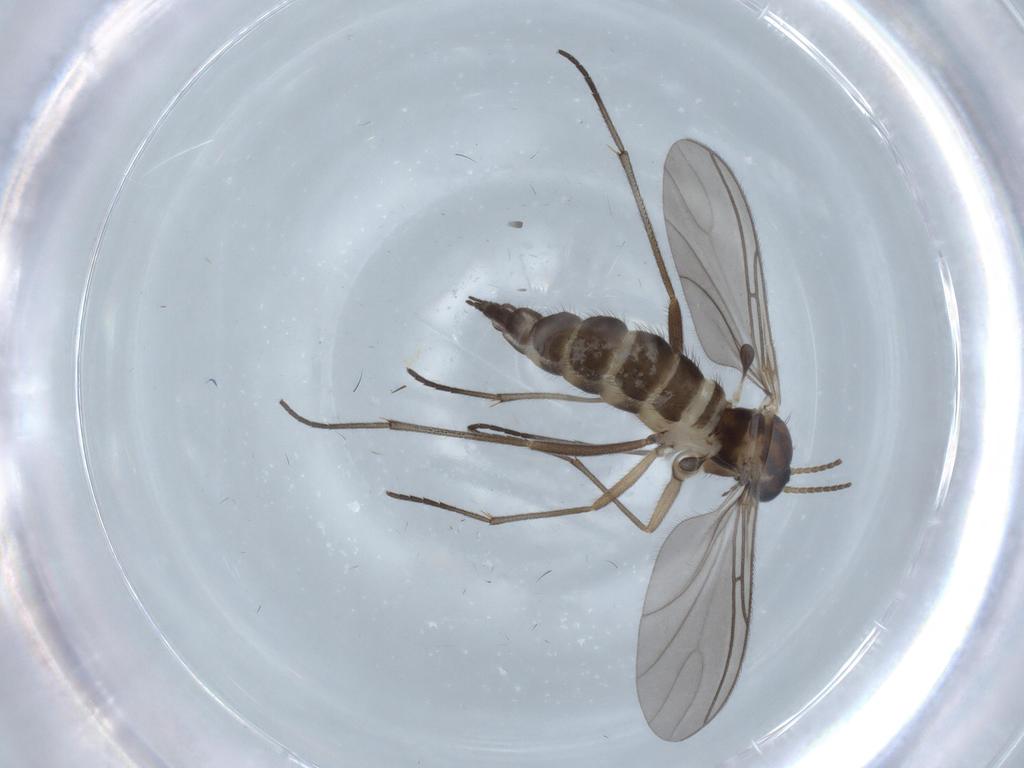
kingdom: Animalia
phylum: Arthropoda
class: Insecta
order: Diptera
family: Sciaridae
